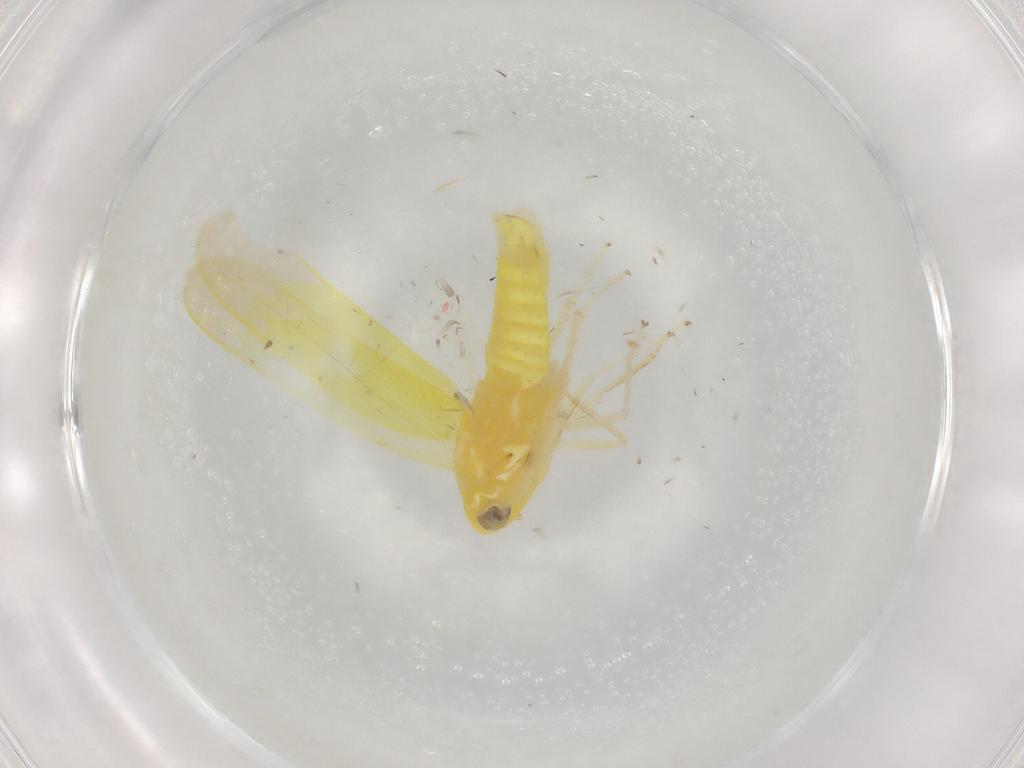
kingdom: Animalia
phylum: Arthropoda
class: Insecta
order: Hemiptera
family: Cicadellidae
